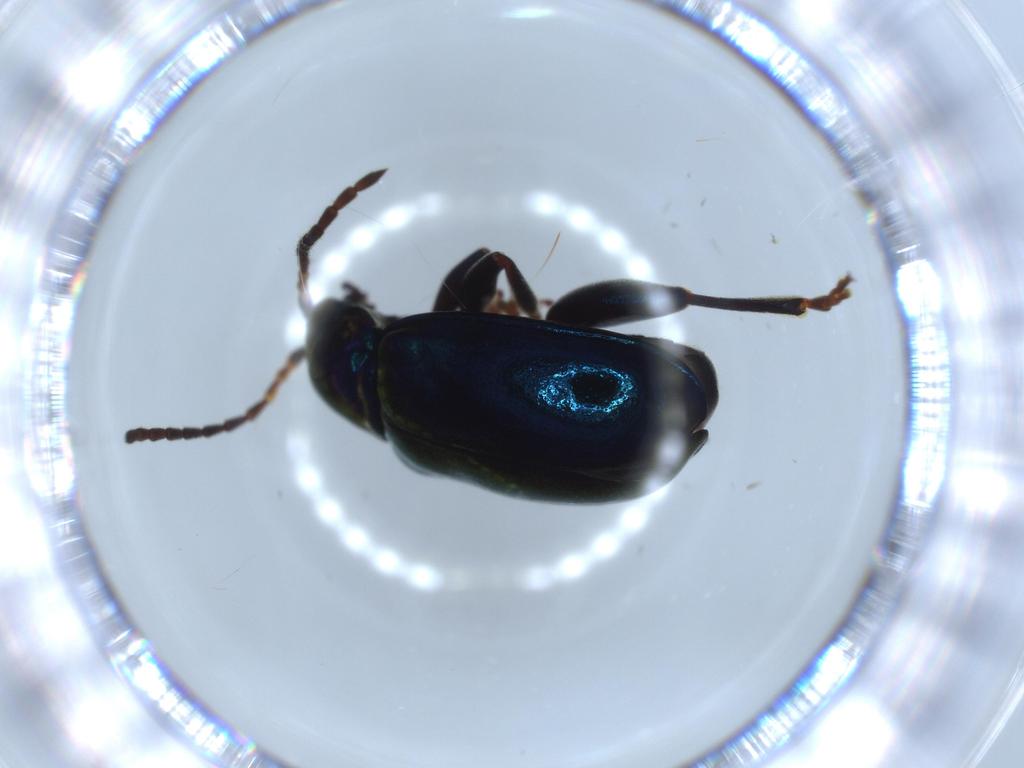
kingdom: Animalia
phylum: Arthropoda
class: Insecta
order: Coleoptera
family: Chrysomelidae
